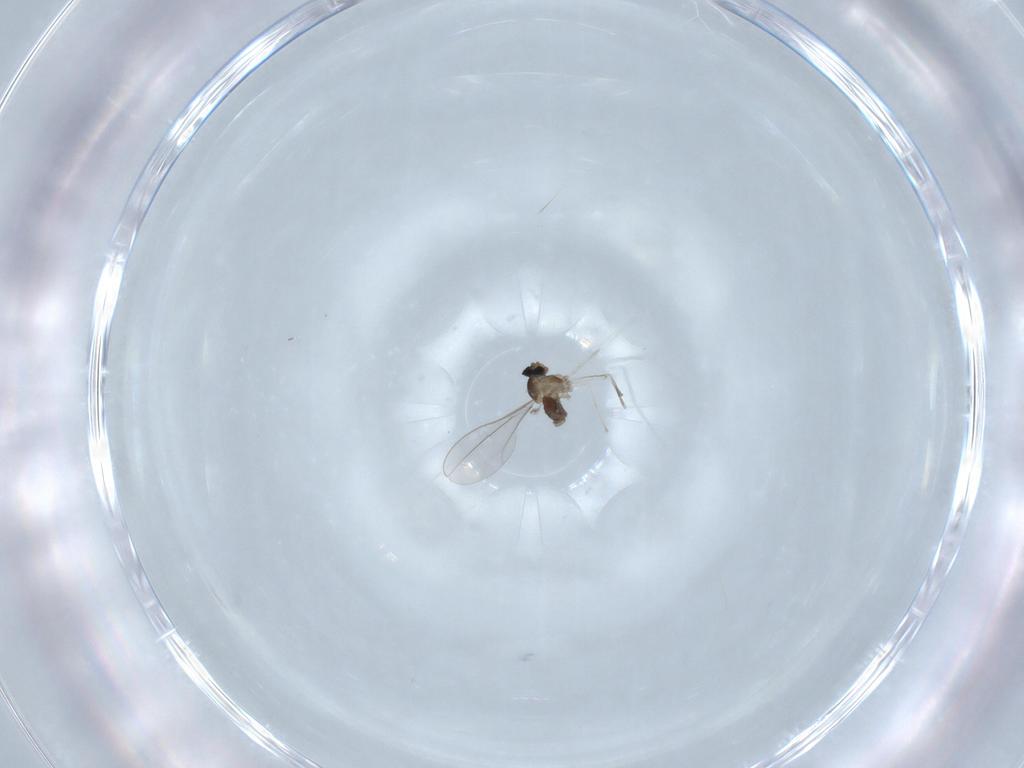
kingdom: Animalia
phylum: Arthropoda
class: Insecta
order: Diptera
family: Cecidomyiidae
